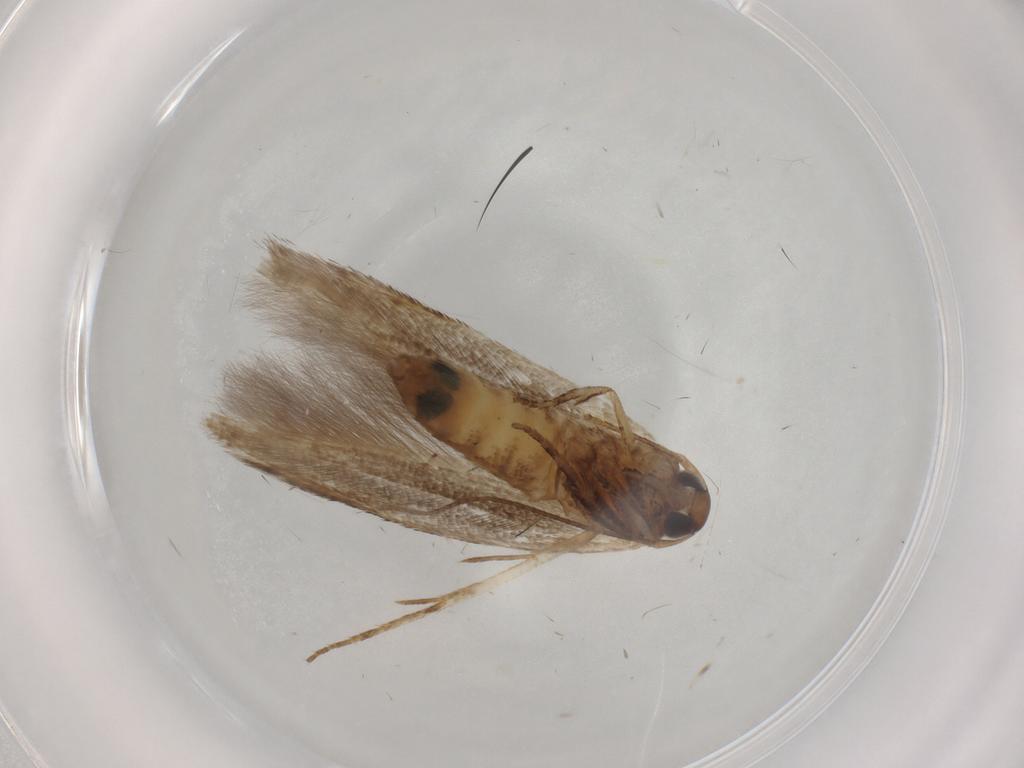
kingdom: Animalia
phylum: Arthropoda
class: Insecta
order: Lepidoptera
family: Cosmopterigidae
